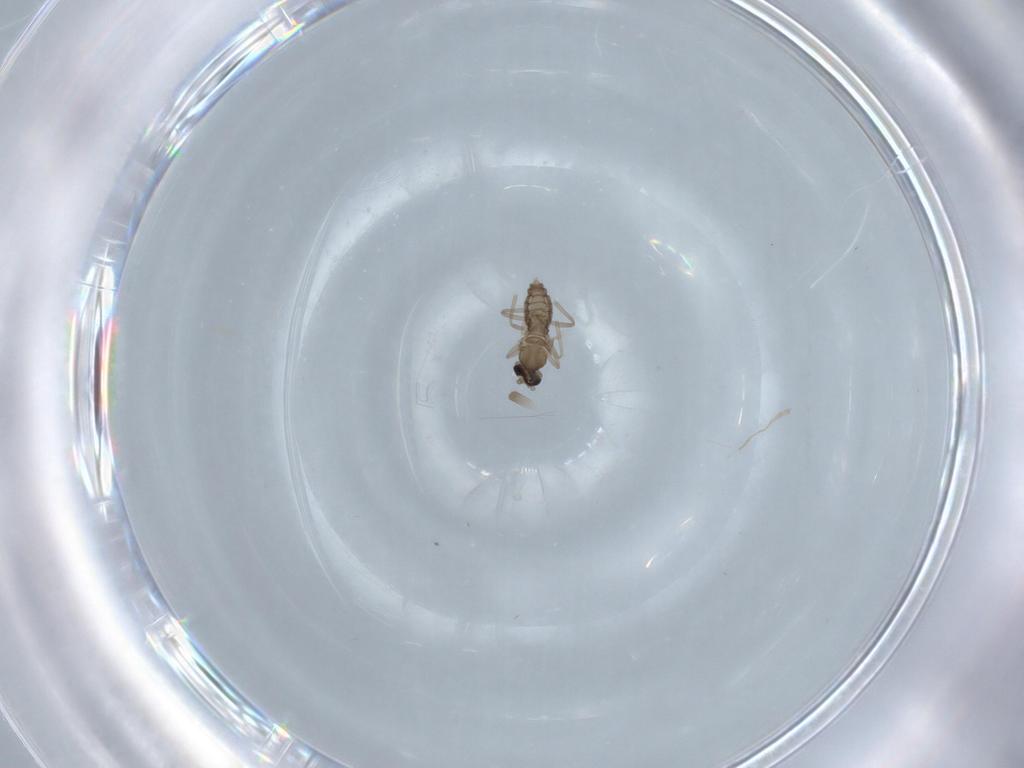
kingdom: Animalia
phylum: Arthropoda
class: Insecta
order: Diptera
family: Cecidomyiidae
